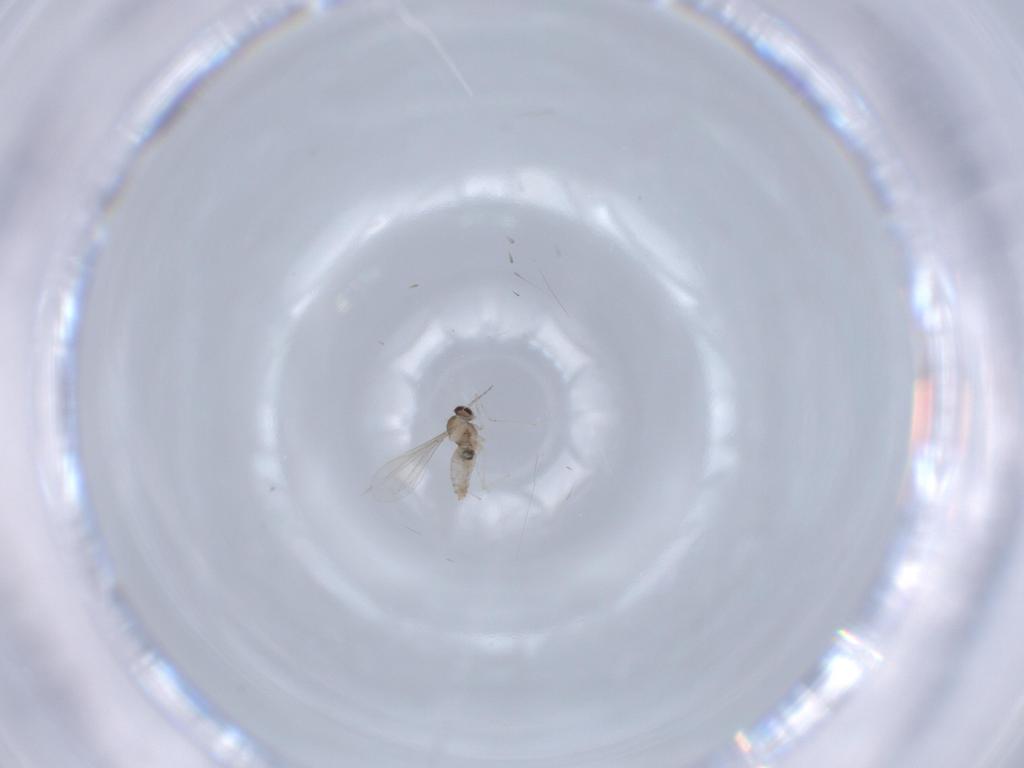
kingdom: Animalia
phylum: Arthropoda
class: Insecta
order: Diptera
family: Cecidomyiidae
